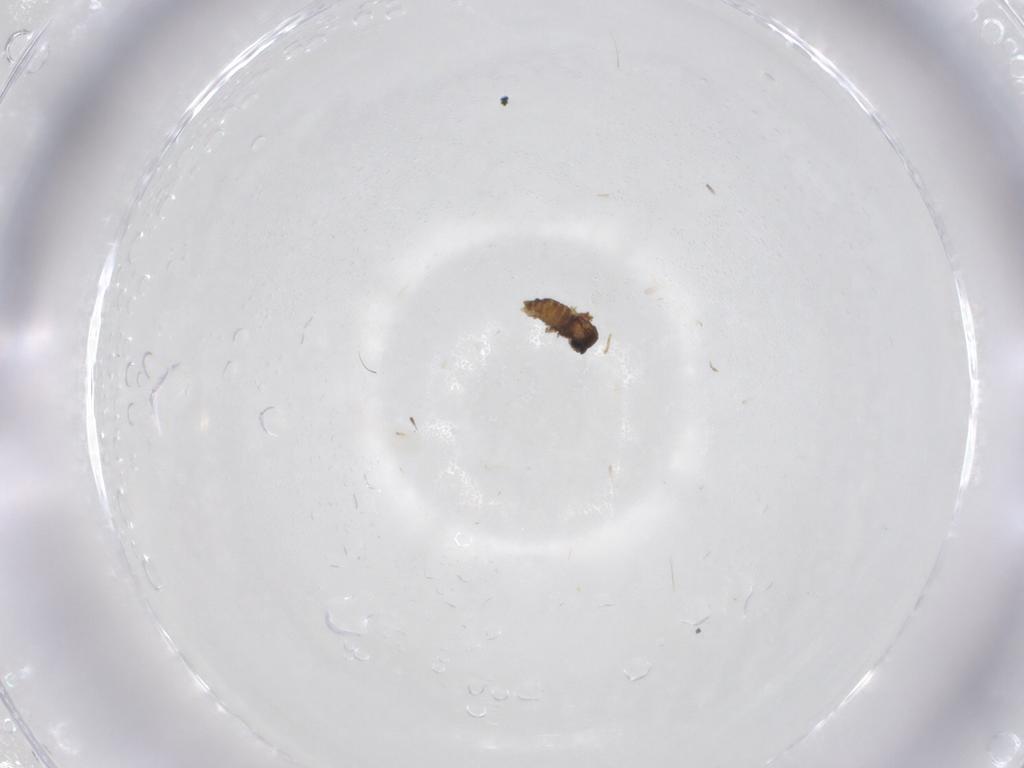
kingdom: Animalia
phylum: Arthropoda
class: Insecta
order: Diptera
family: Cecidomyiidae
